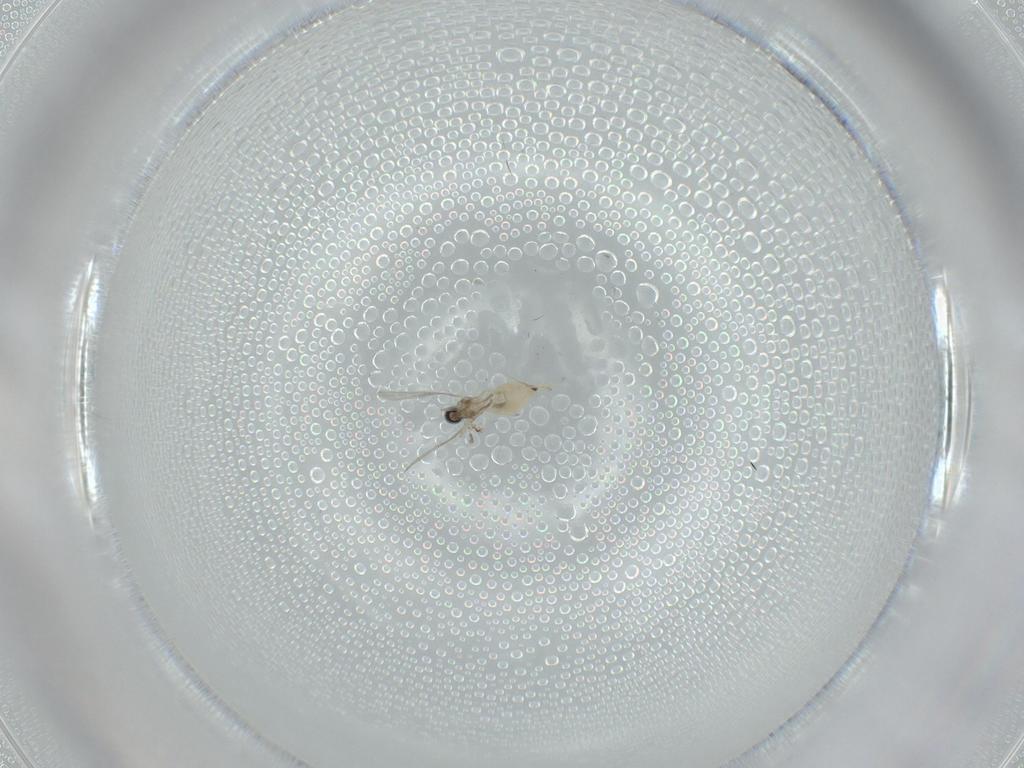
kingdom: Animalia
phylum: Arthropoda
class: Insecta
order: Diptera
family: Cecidomyiidae
